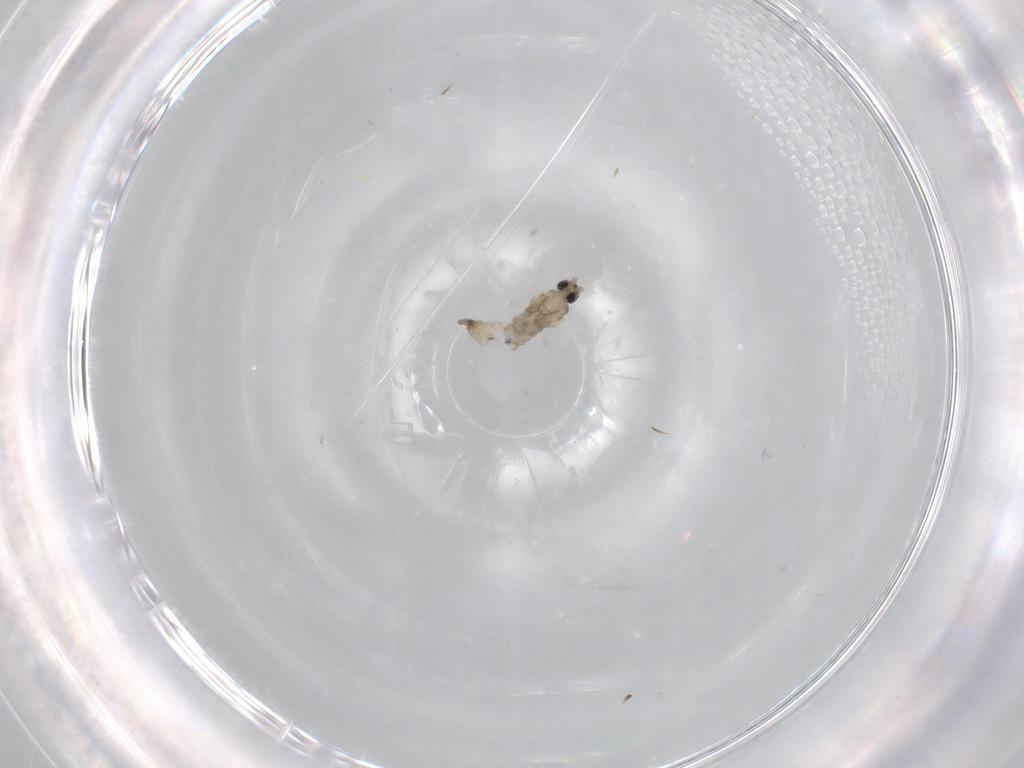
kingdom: Animalia
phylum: Arthropoda
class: Insecta
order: Diptera
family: Cecidomyiidae
